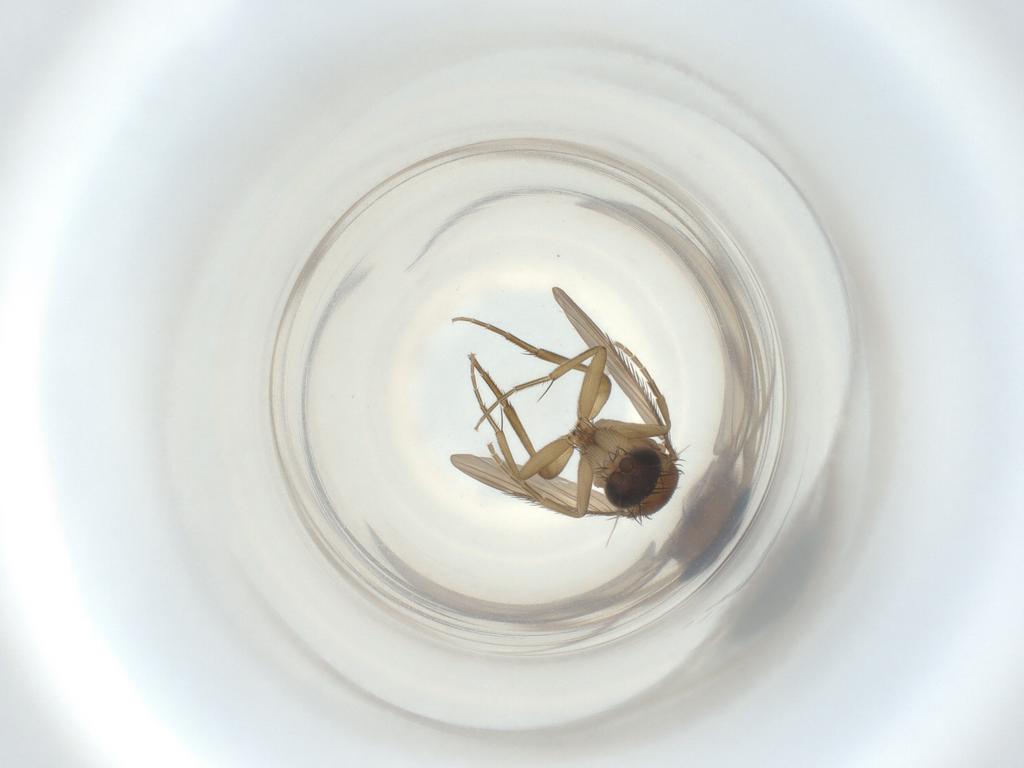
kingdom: Animalia
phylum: Arthropoda
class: Insecta
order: Diptera
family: Phoridae
